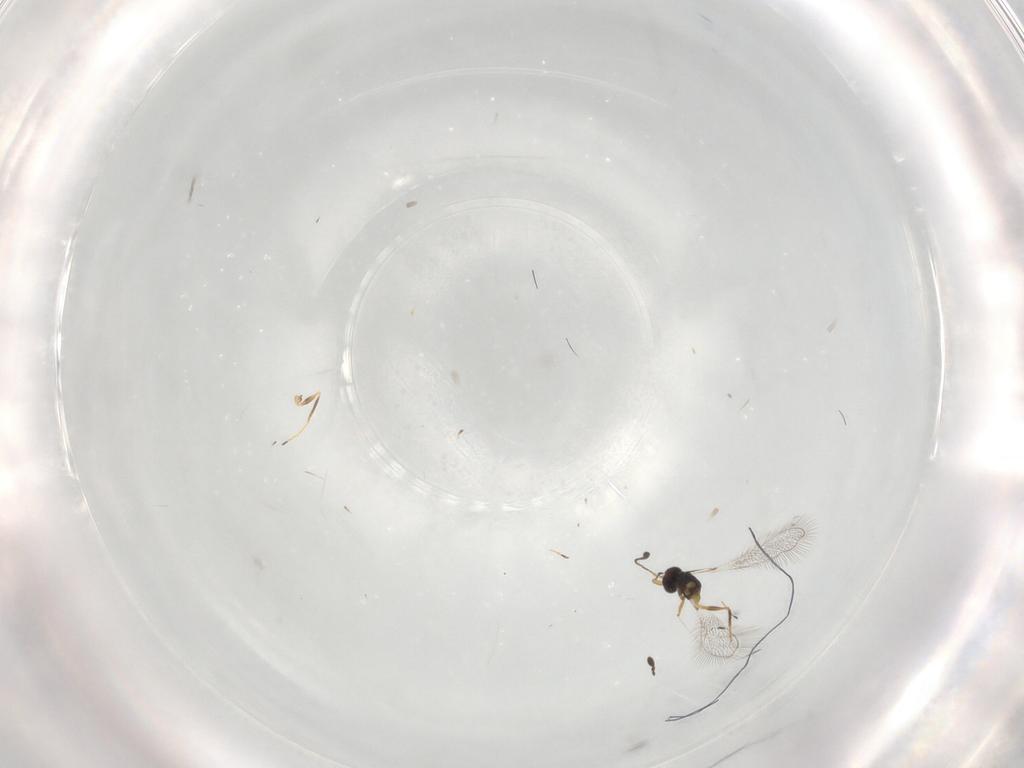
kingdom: Animalia
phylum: Arthropoda
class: Insecta
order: Hymenoptera
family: Mymaridae
